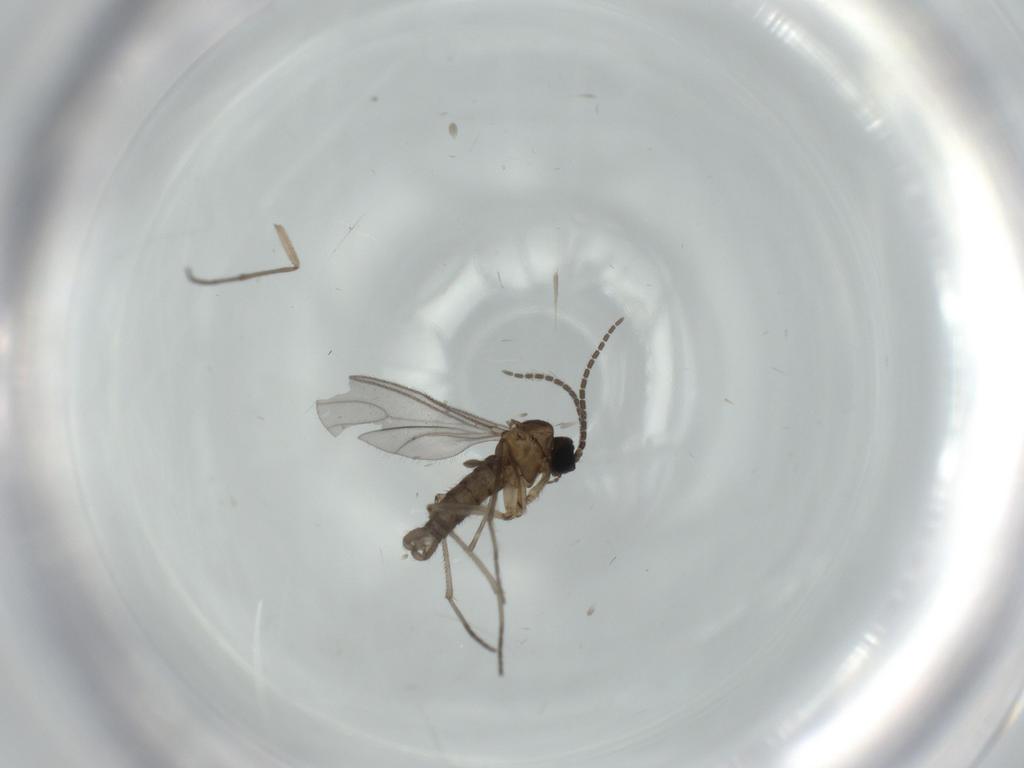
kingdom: Animalia
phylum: Arthropoda
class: Insecta
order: Diptera
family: Sciaridae
